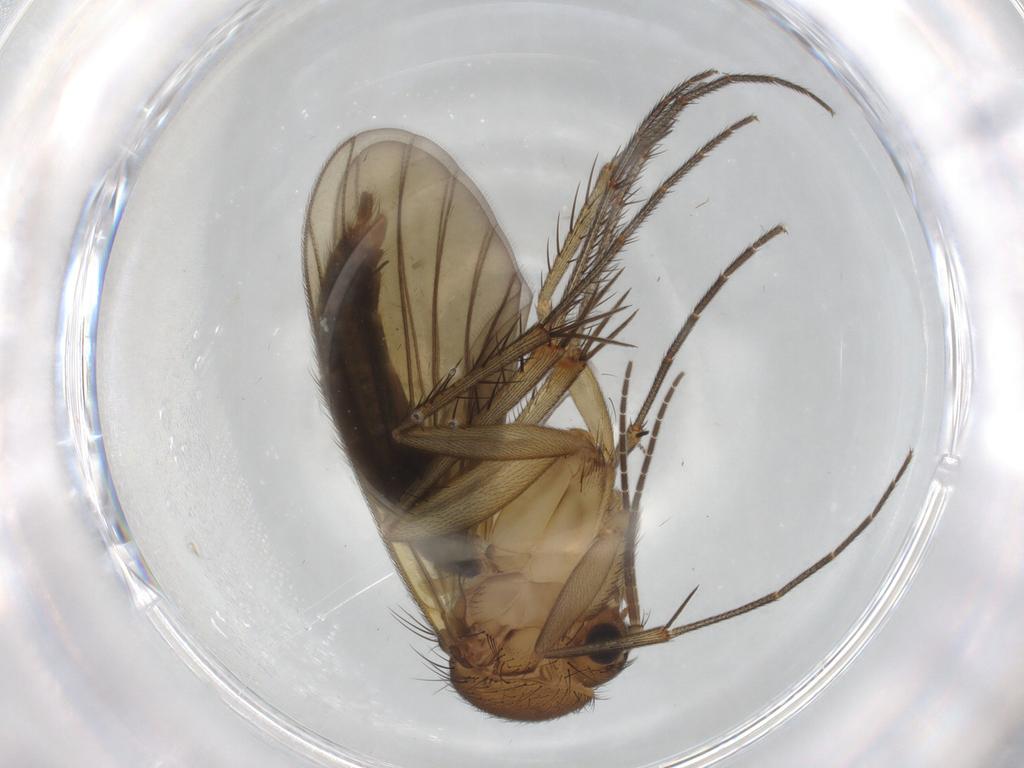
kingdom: Animalia
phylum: Arthropoda
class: Insecta
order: Diptera
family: Mycetophilidae
